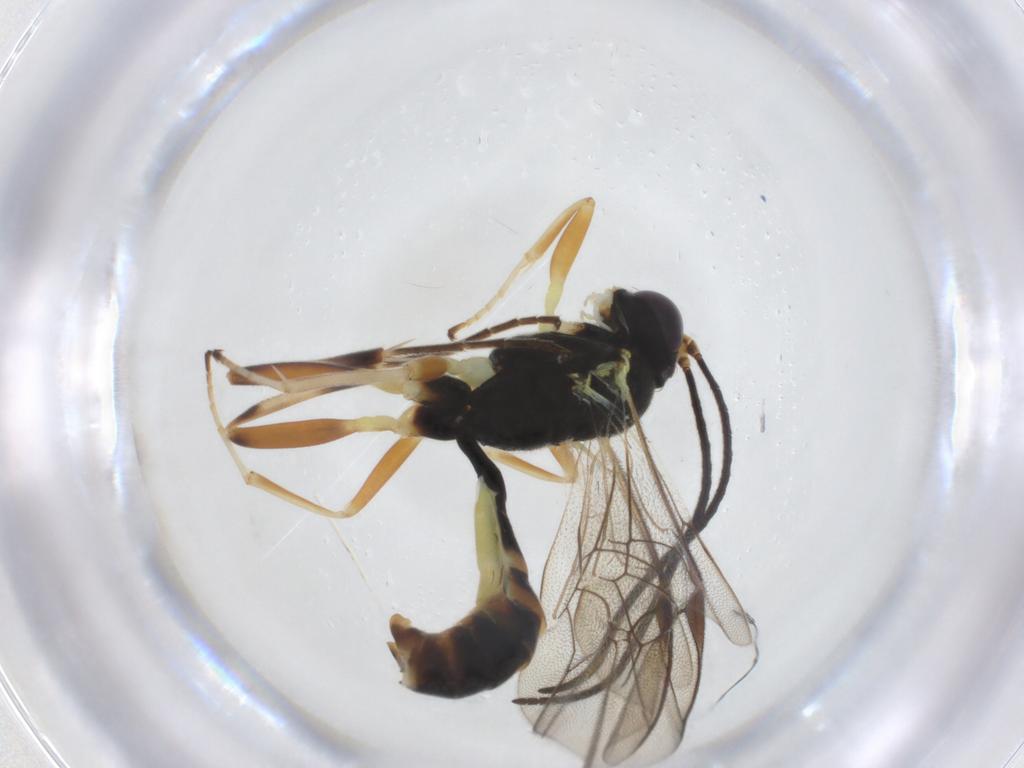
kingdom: Animalia
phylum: Arthropoda
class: Insecta
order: Hymenoptera
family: Ichneumonidae
